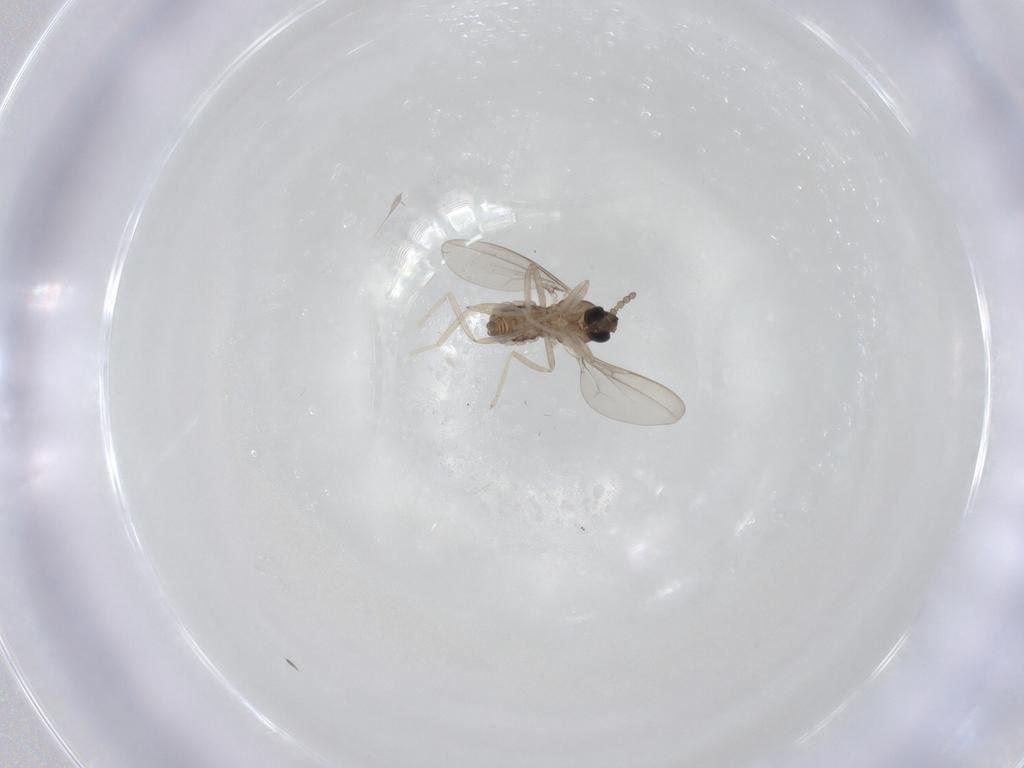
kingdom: Animalia
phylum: Arthropoda
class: Insecta
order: Diptera
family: Cecidomyiidae
